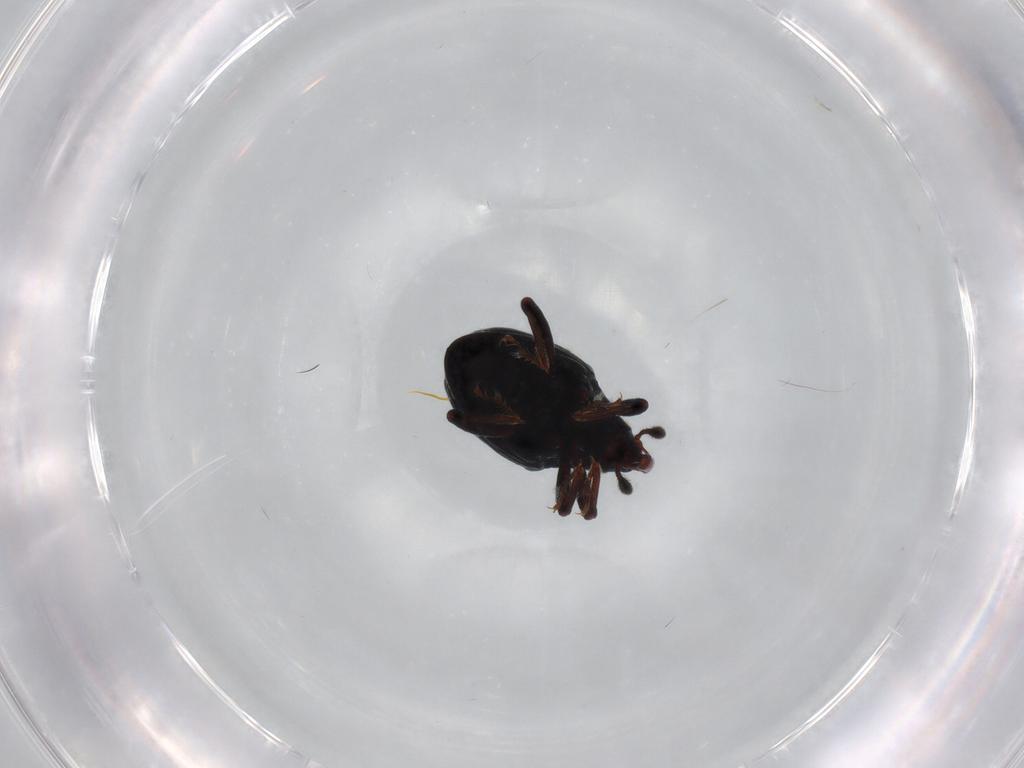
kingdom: Animalia
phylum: Arthropoda
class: Insecta
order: Coleoptera
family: Curculionidae
